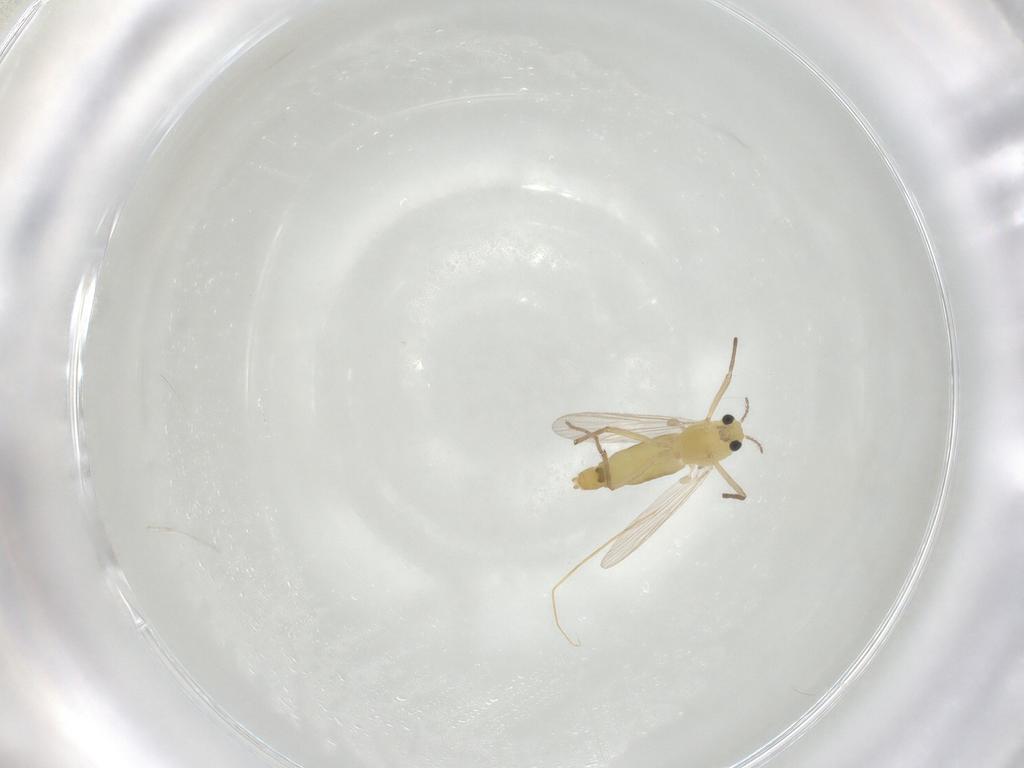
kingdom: Animalia
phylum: Arthropoda
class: Insecta
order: Diptera
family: Chironomidae
